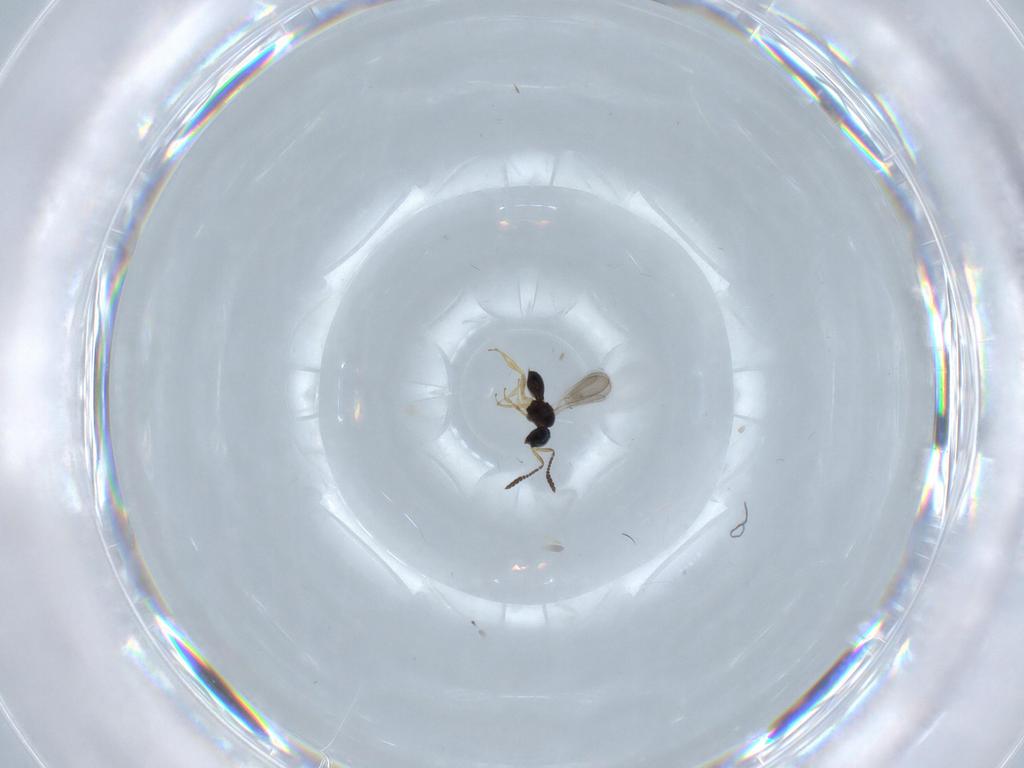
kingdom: Animalia
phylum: Arthropoda
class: Insecta
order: Hymenoptera
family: Scelionidae
